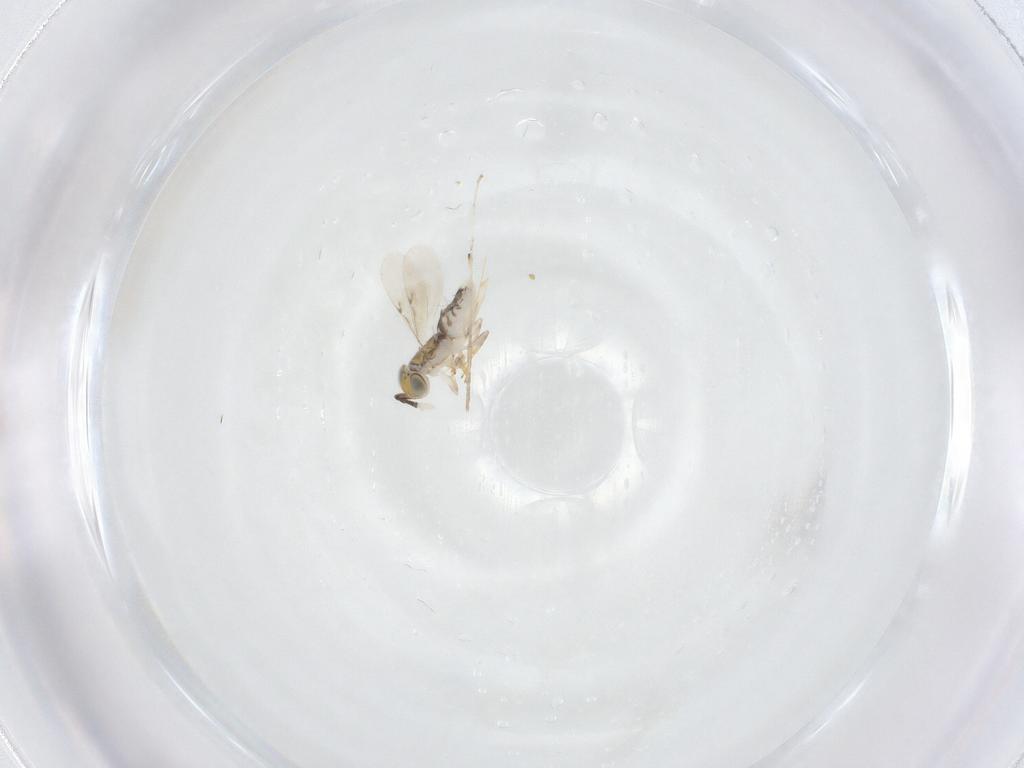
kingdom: Animalia
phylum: Arthropoda
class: Insecta
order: Hymenoptera
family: Encyrtidae
